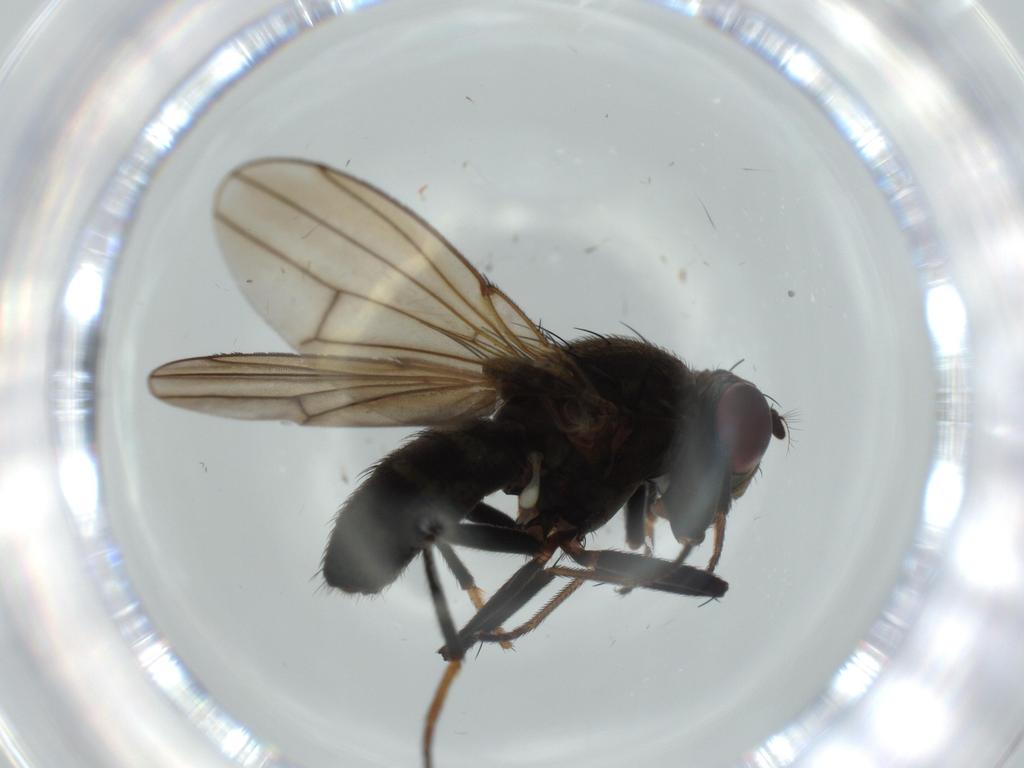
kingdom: Animalia
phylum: Arthropoda
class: Insecta
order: Diptera
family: Ephydridae
